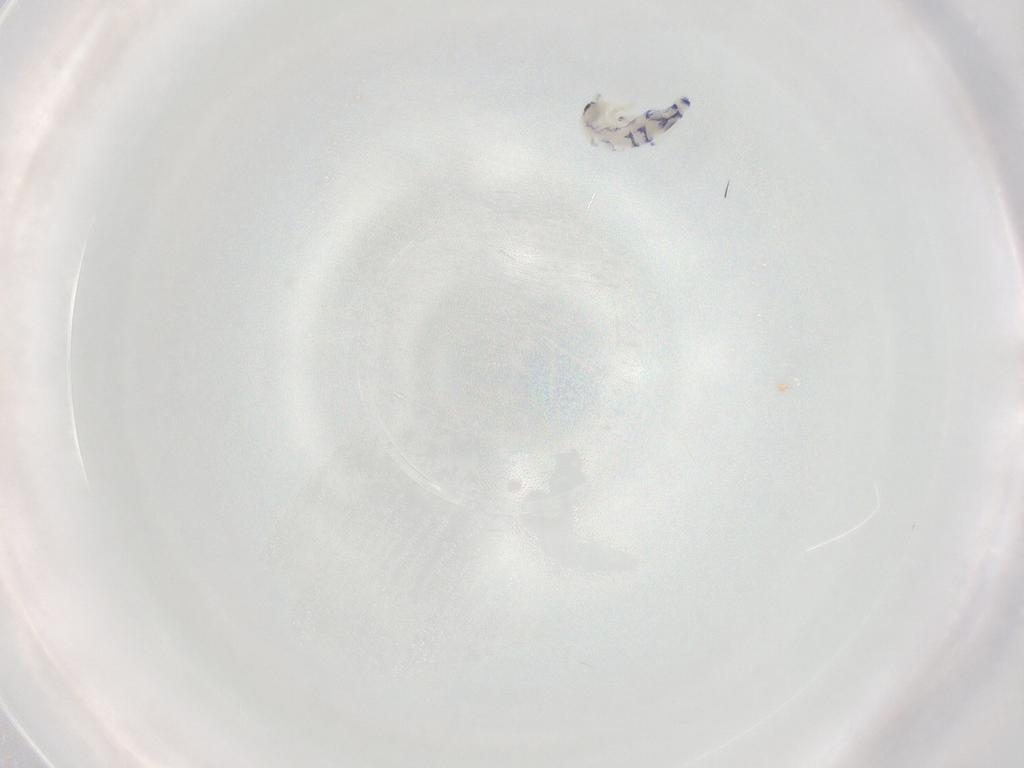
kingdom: Animalia
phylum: Arthropoda
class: Collembola
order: Entomobryomorpha
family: Entomobryidae
